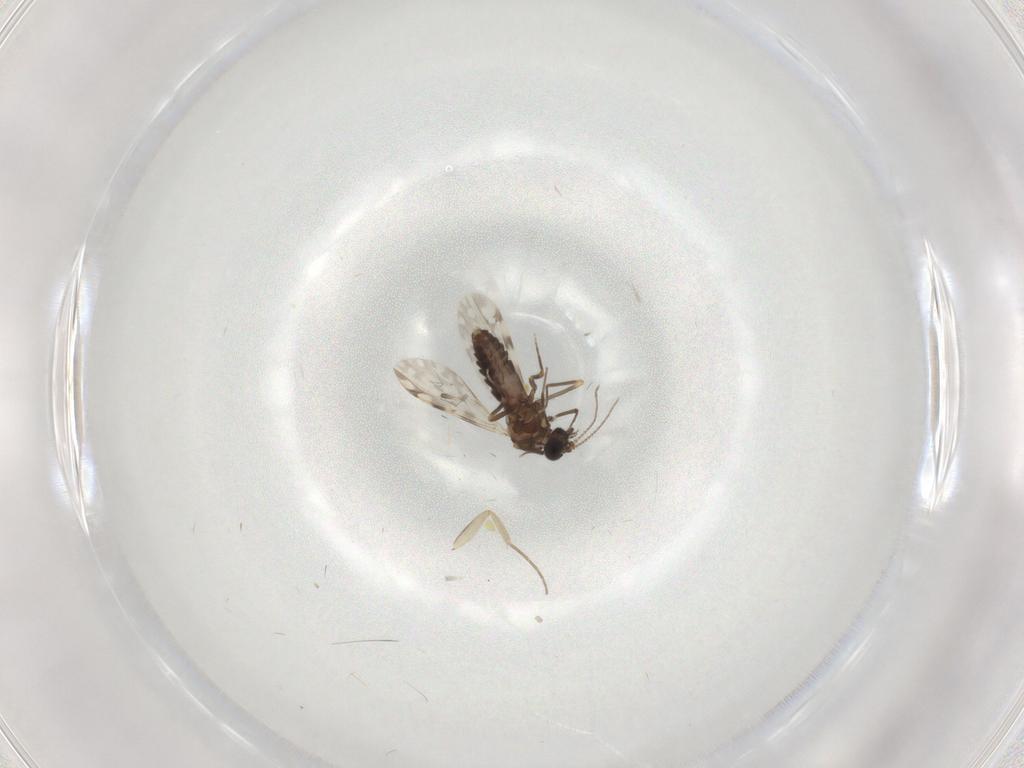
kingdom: Animalia
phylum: Arthropoda
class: Insecta
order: Diptera
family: Ceratopogonidae
